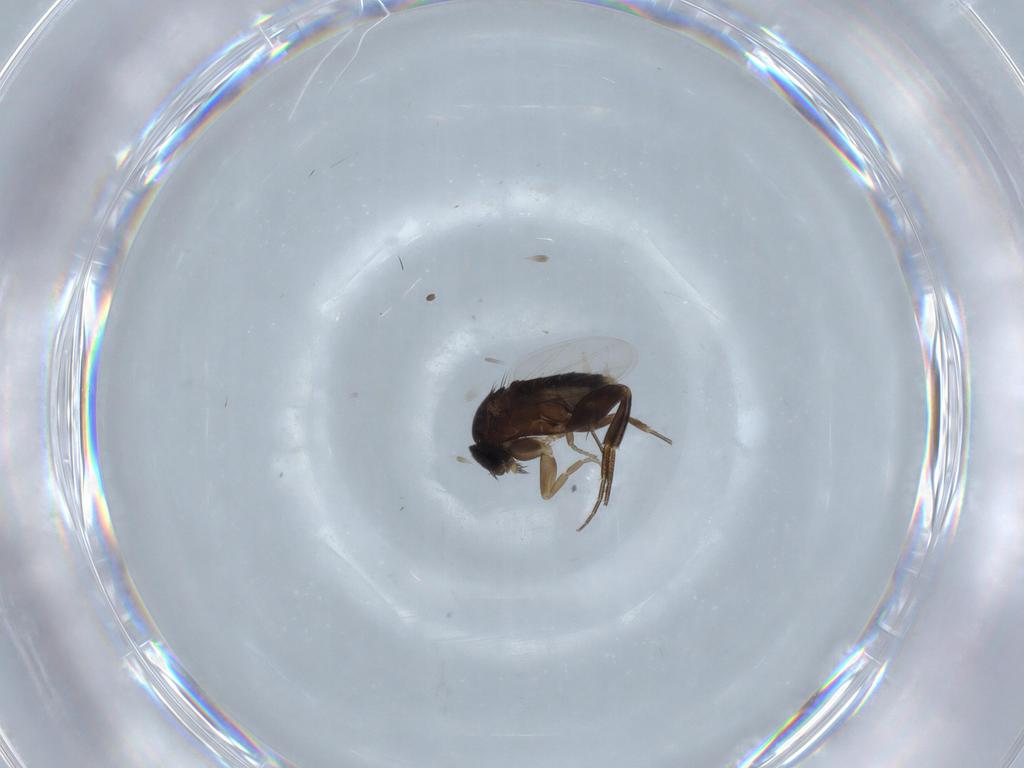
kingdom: Animalia
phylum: Arthropoda
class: Insecta
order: Diptera
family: Phoridae
